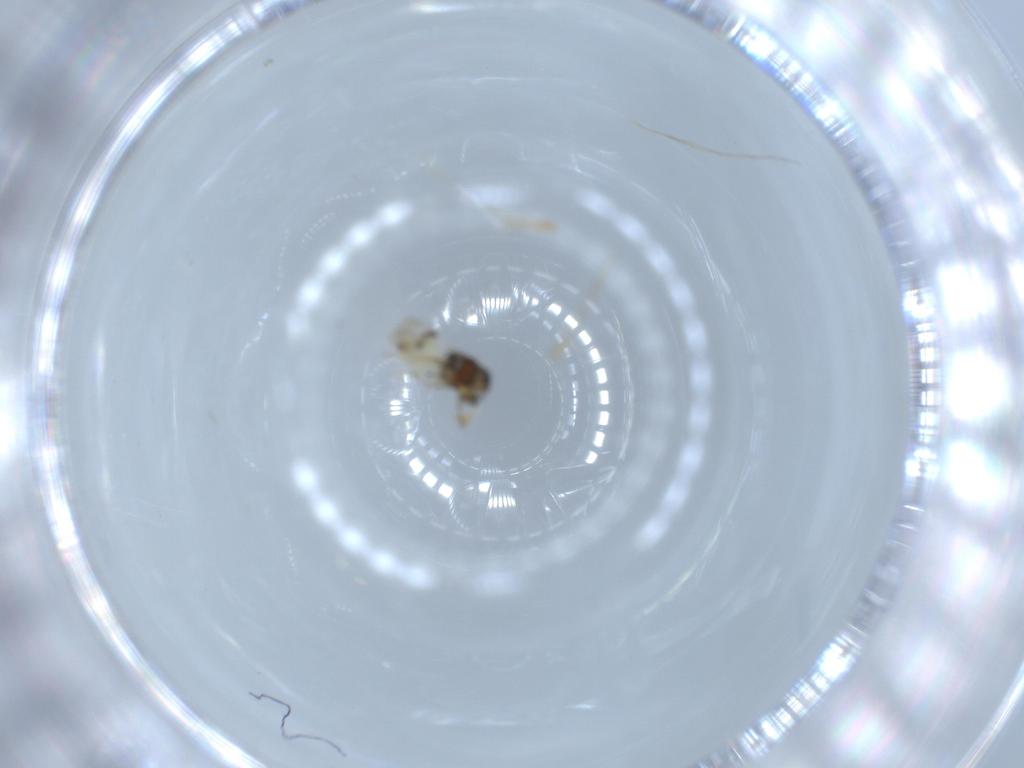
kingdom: Animalia
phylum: Arthropoda
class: Insecta
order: Hymenoptera
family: Scelionidae
